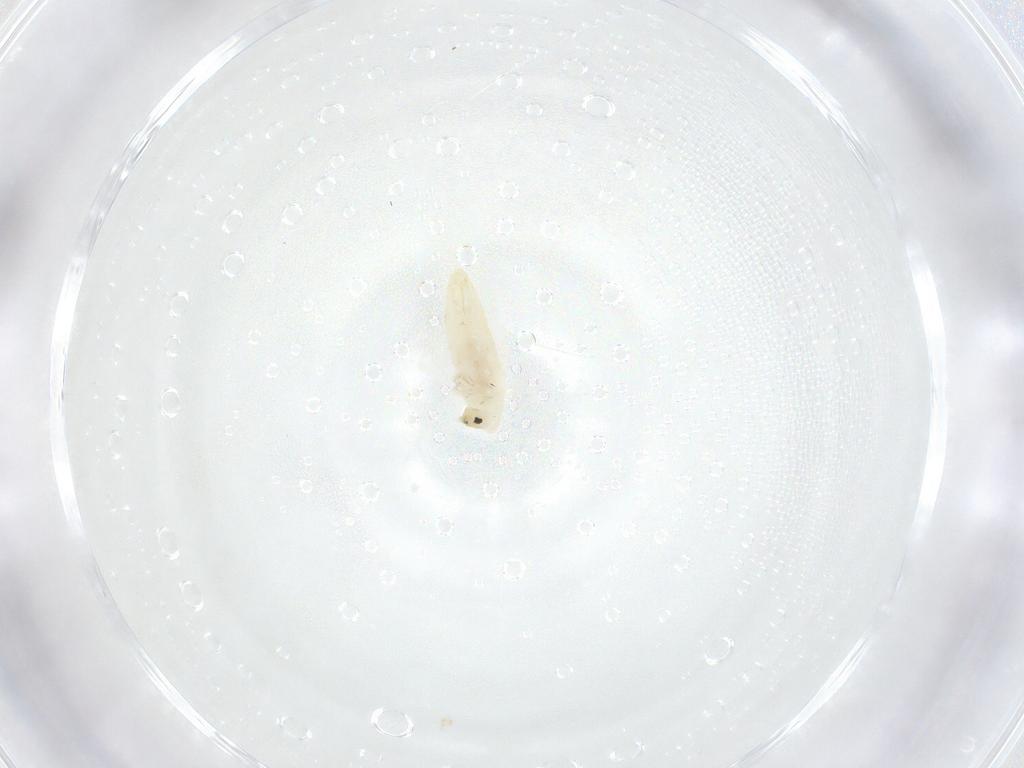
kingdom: Animalia
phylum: Arthropoda
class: Collembola
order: Entomobryomorpha
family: Entomobryidae
